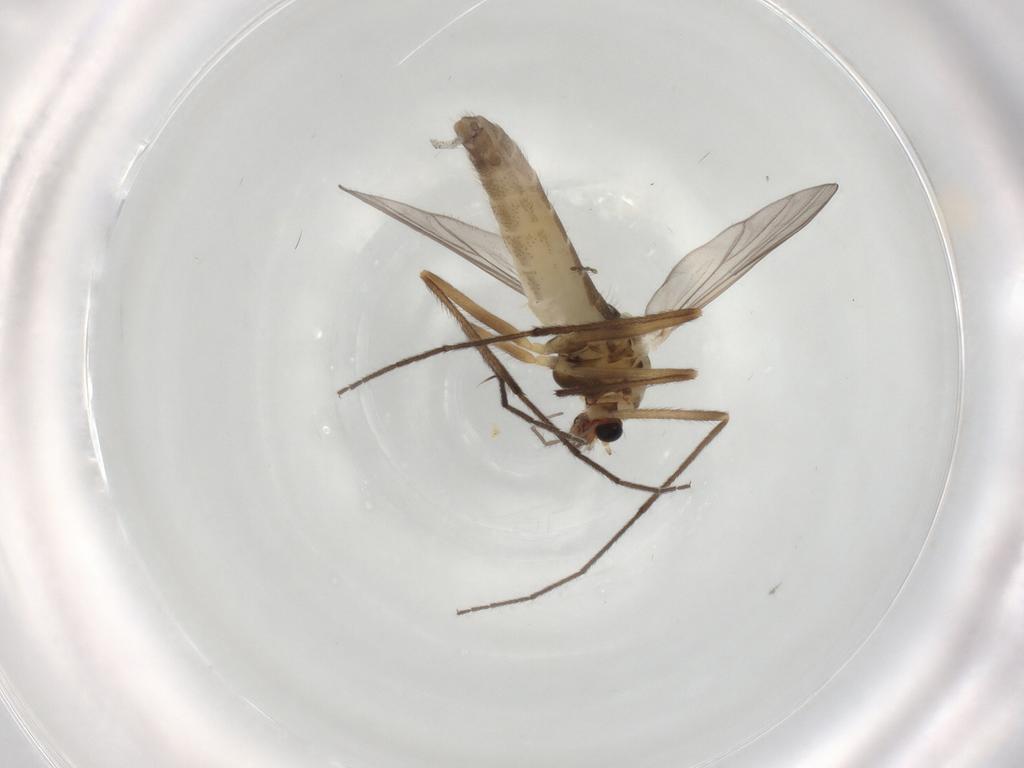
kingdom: Animalia
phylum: Arthropoda
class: Insecta
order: Diptera
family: Chironomidae
